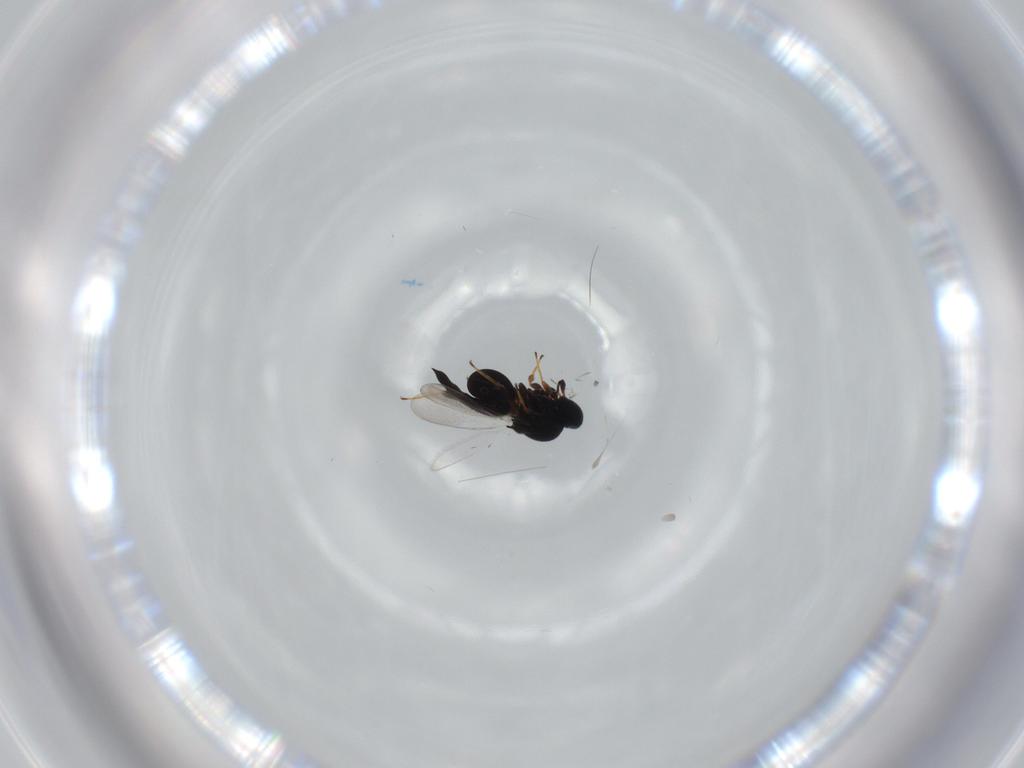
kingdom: Animalia
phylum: Arthropoda
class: Insecta
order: Hymenoptera
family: Platygastridae
